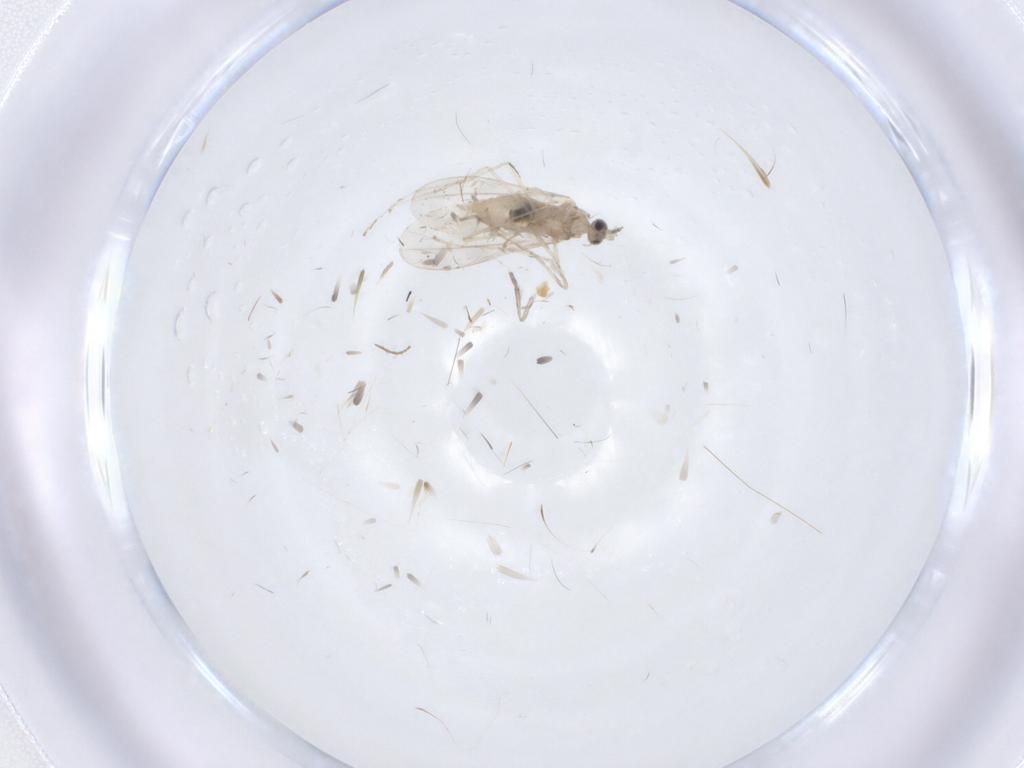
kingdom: Animalia
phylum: Arthropoda
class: Insecta
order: Diptera
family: Psychodidae
